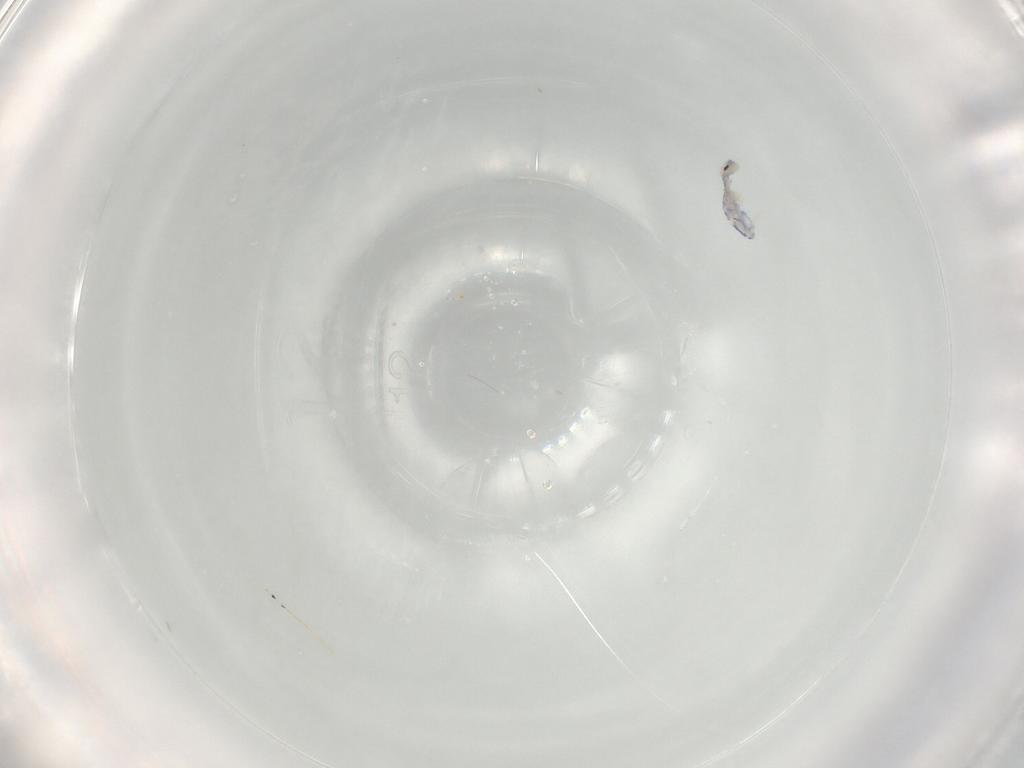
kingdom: Animalia
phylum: Arthropoda
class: Collembola
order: Entomobryomorpha
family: Entomobryidae
